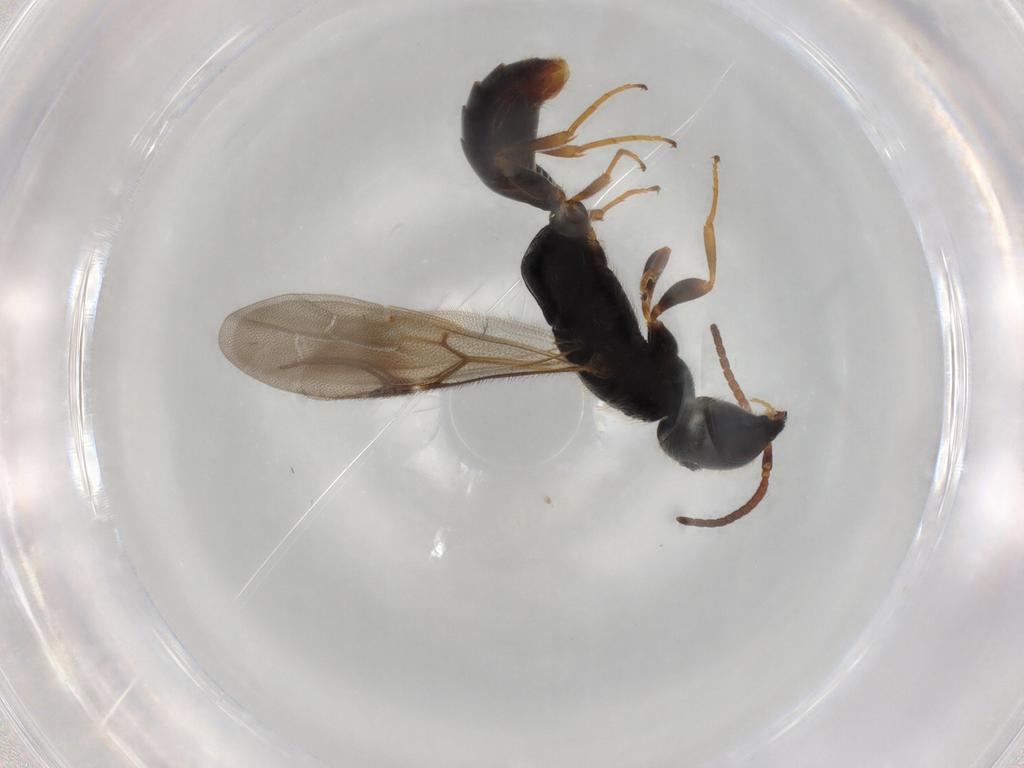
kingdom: Animalia
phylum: Arthropoda
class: Insecta
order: Hymenoptera
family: Bethylidae
